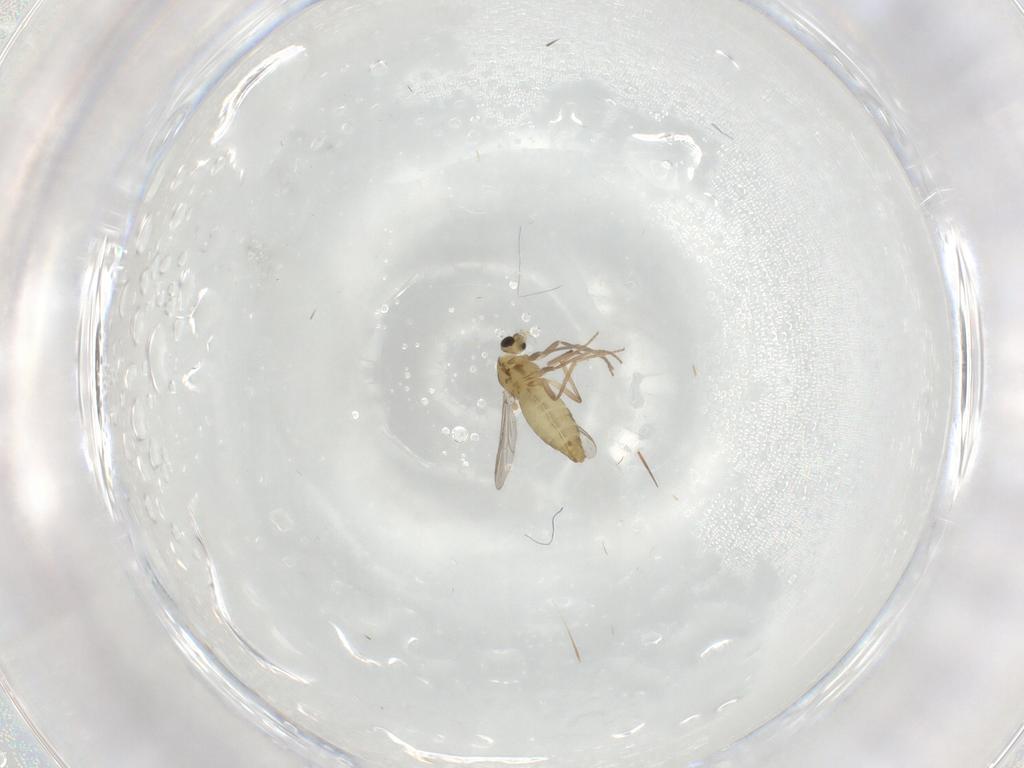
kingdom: Animalia
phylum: Arthropoda
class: Insecta
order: Diptera
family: Chironomidae
